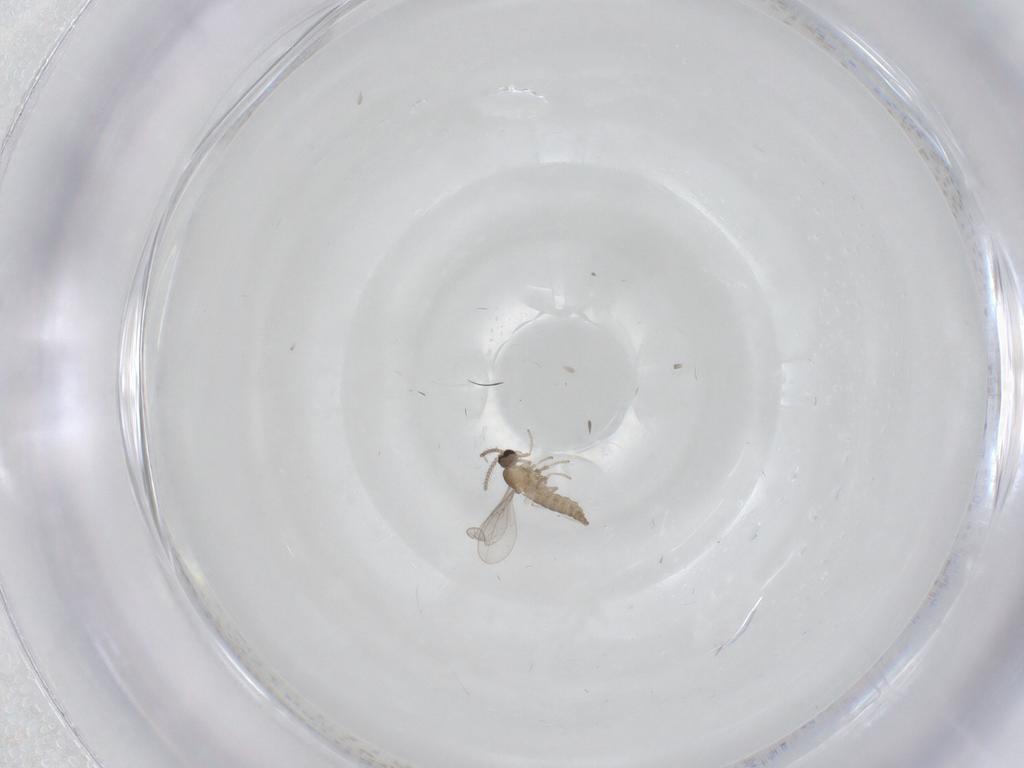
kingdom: Animalia
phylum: Arthropoda
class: Insecta
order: Diptera
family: Cecidomyiidae
